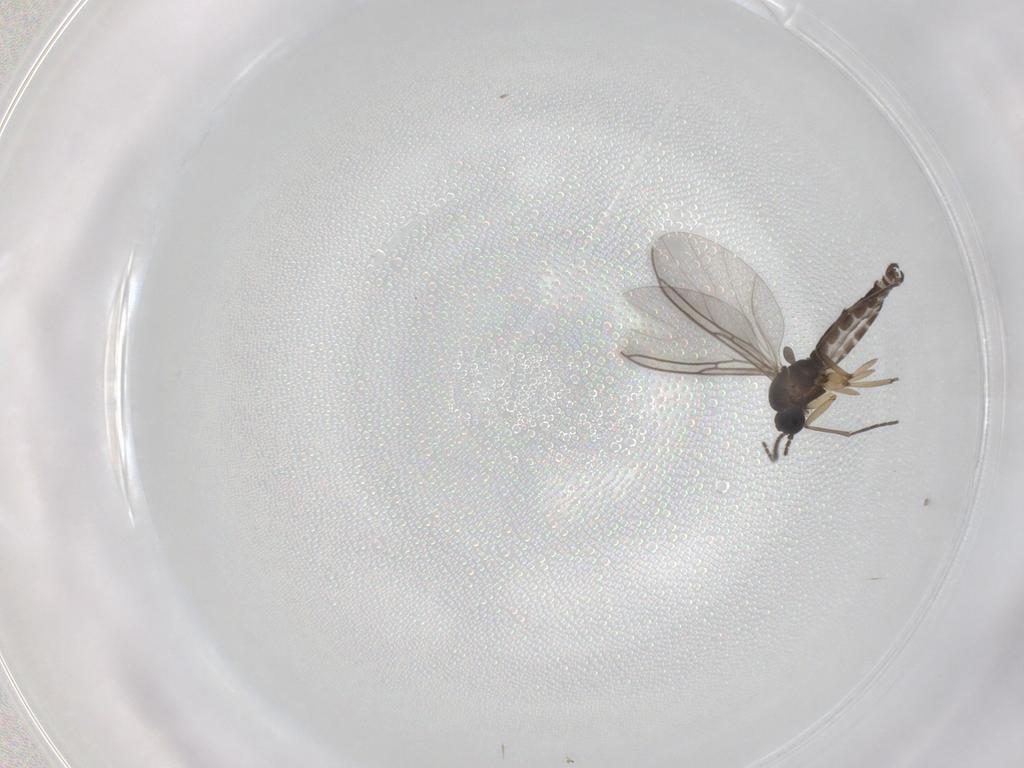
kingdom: Animalia
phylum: Arthropoda
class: Insecta
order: Diptera
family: Chironomidae
